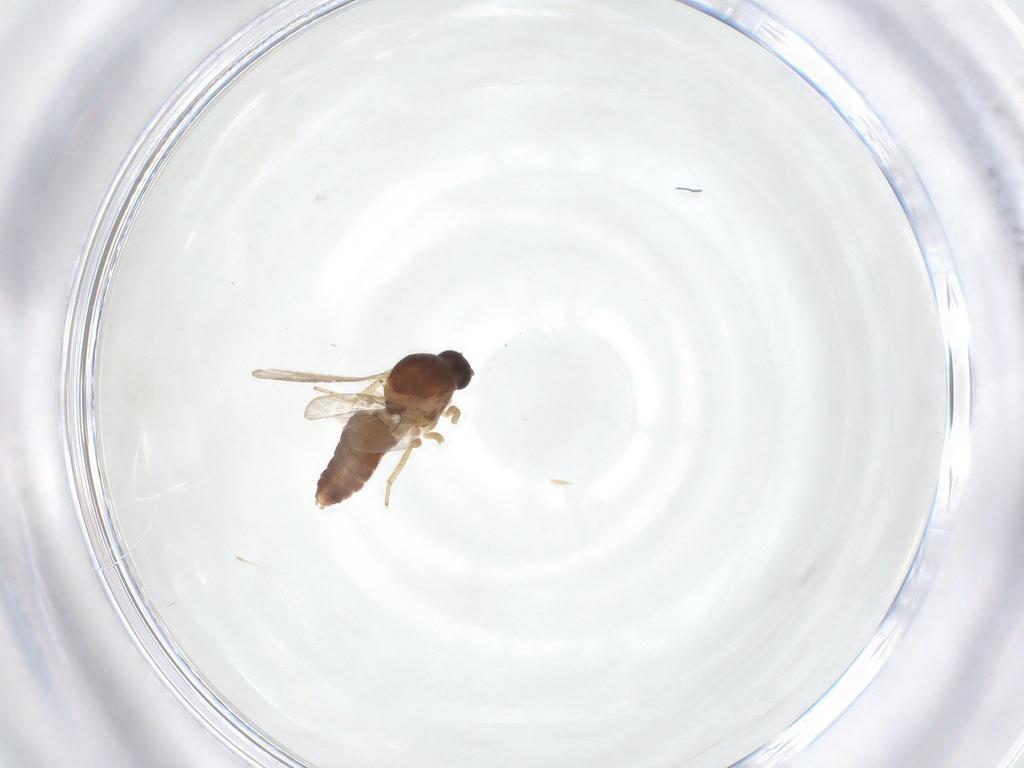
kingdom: Animalia
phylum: Arthropoda
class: Insecta
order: Diptera
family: Ceratopogonidae
